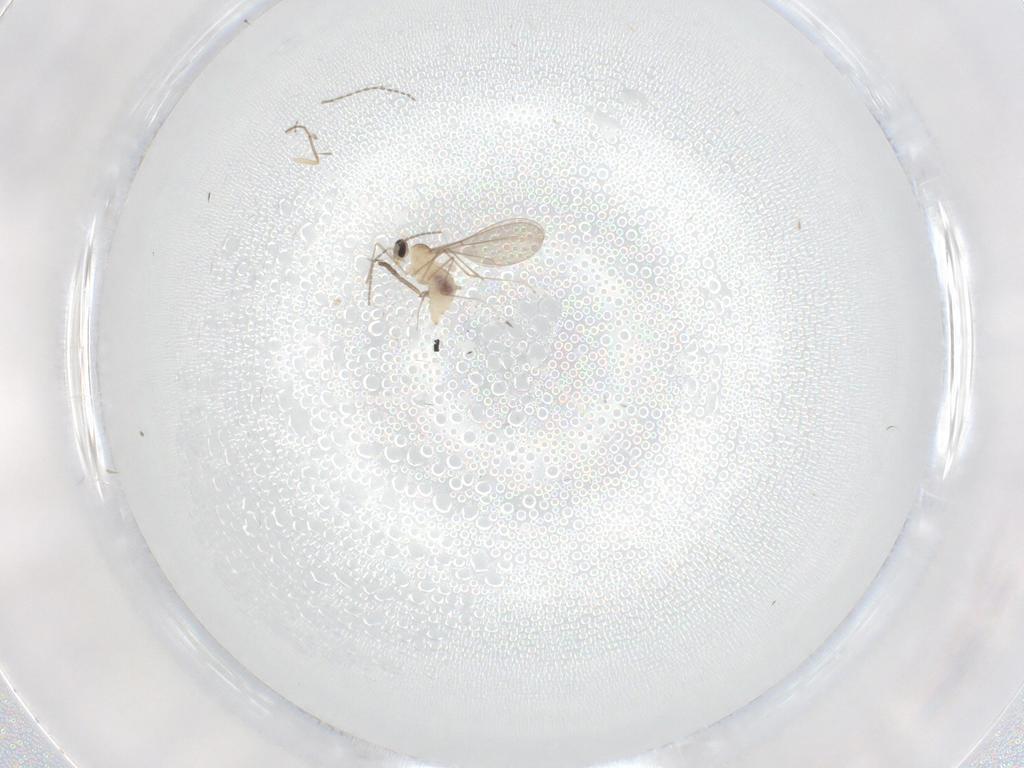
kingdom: Animalia
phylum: Arthropoda
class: Insecta
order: Diptera
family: Cecidomyiidae
